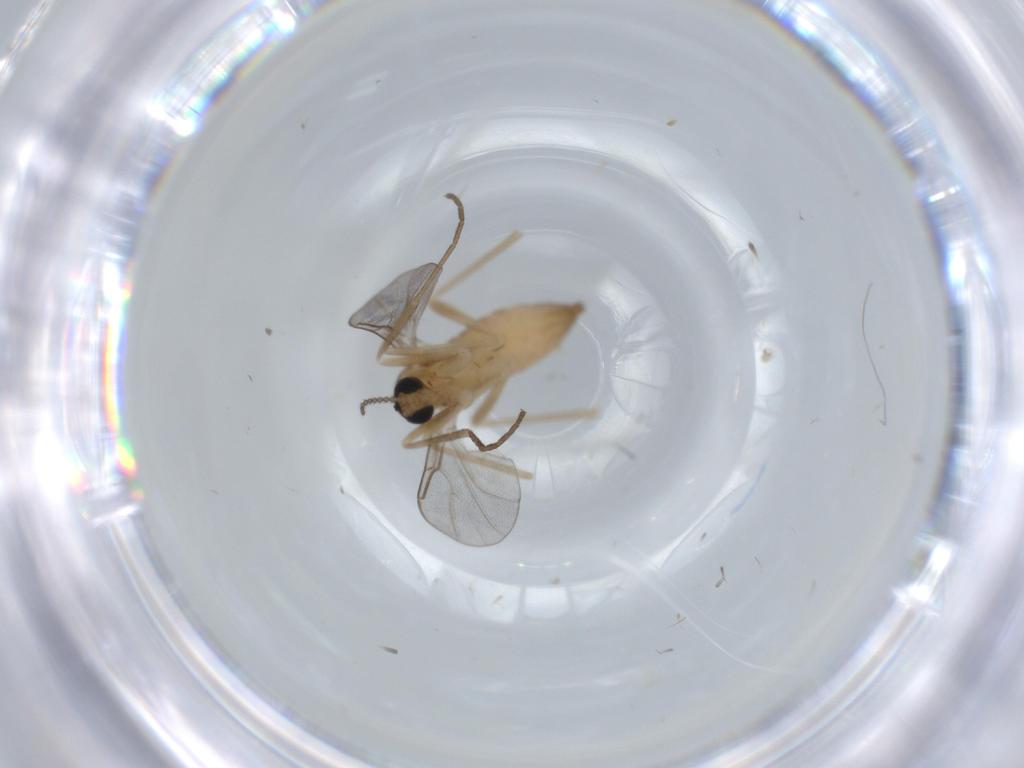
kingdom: Animalia
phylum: Arthropoda
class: Insecta
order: Diptera
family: Cecidomyiidae
